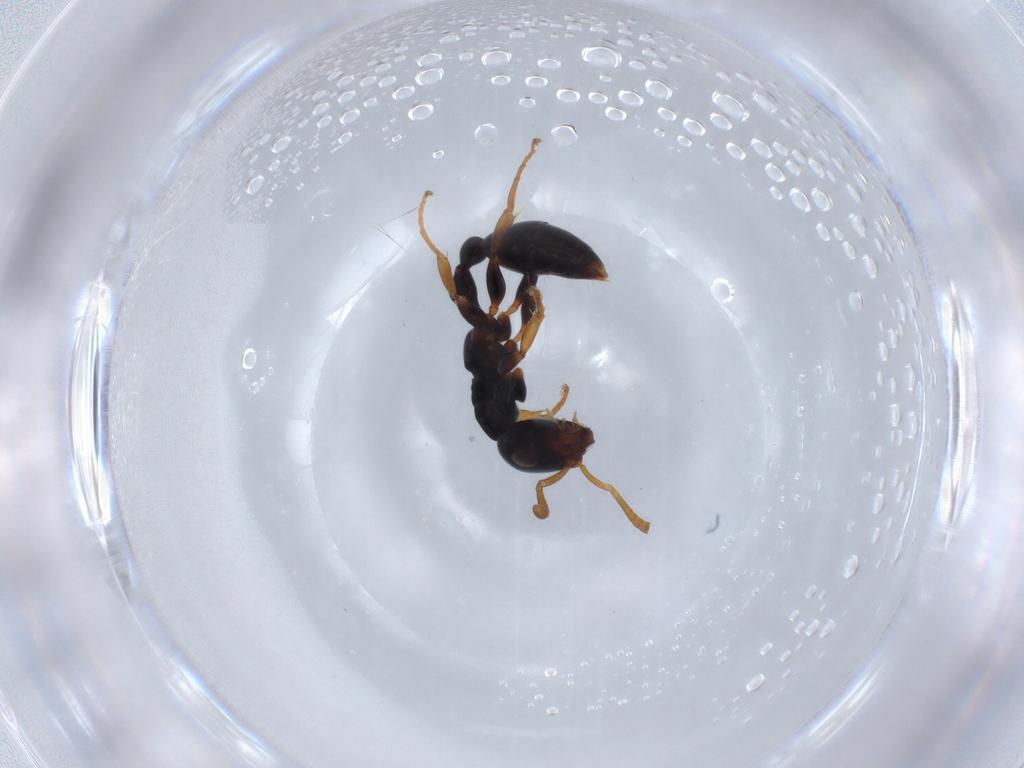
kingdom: Animalia
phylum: Arthropoda
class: Insecta
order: Hymenoptera
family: Formicidae
